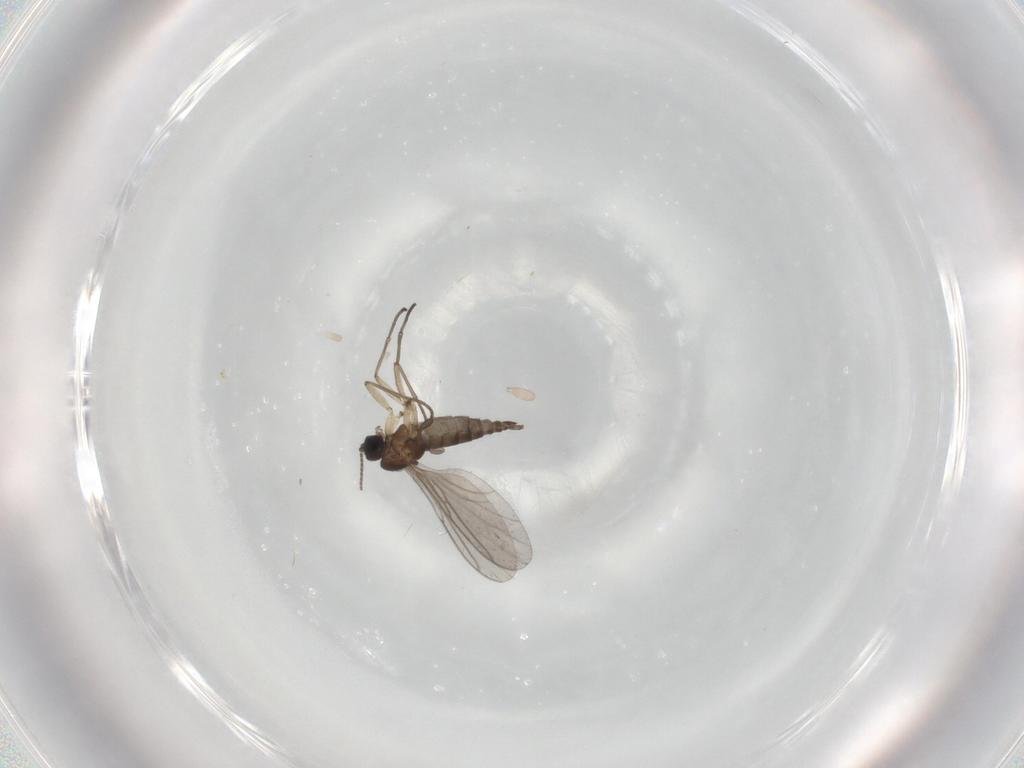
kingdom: Animalia
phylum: Arthropoda
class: Insecta
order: Diptera
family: Sciaridae
